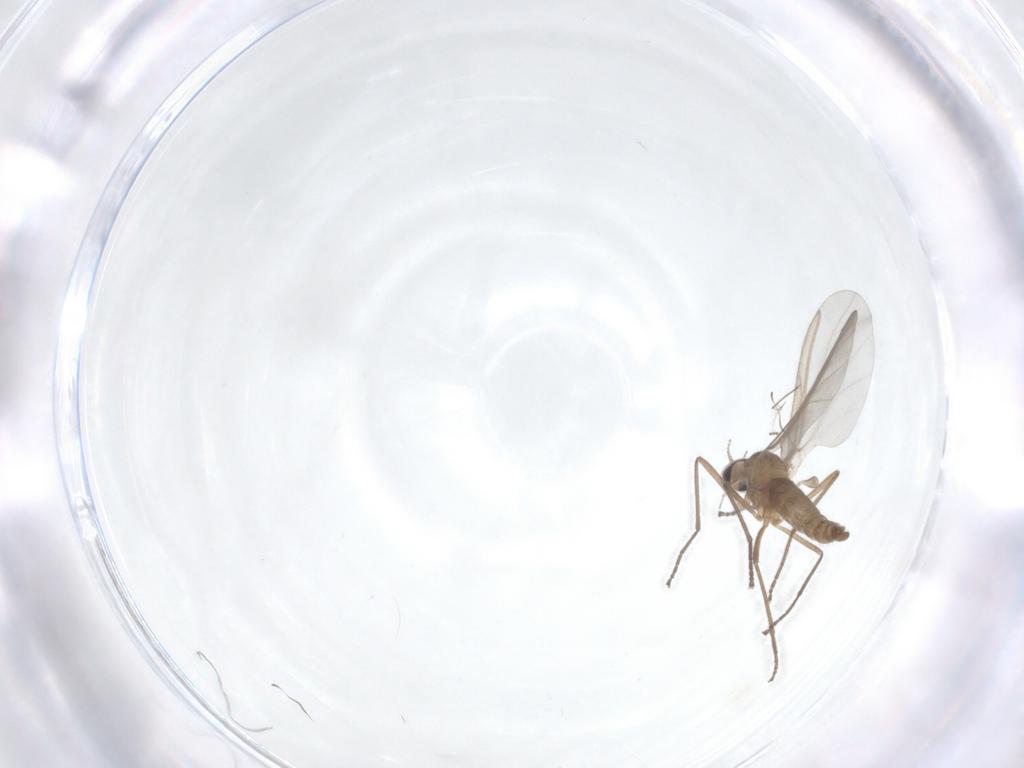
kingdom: Animalia
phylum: Arthropoda
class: Insecta
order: Diptera
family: Cecidomyiidae
